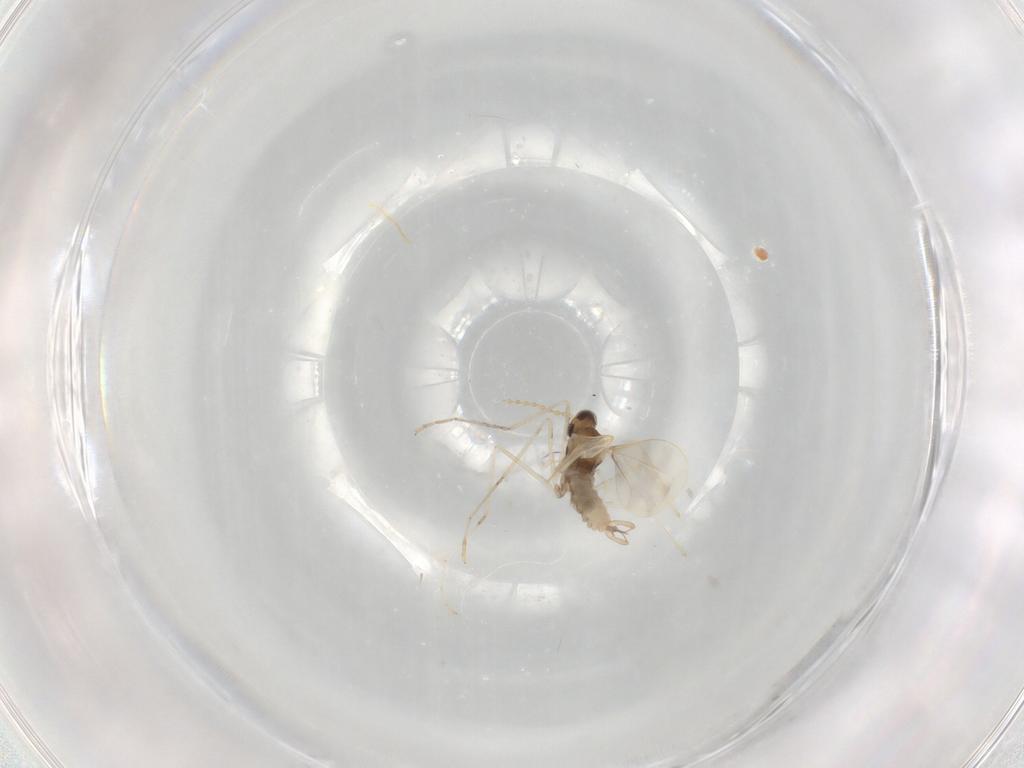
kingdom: Animalia
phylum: Arthropoda
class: Insecta
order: Diptera
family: Cecidomyiidae
